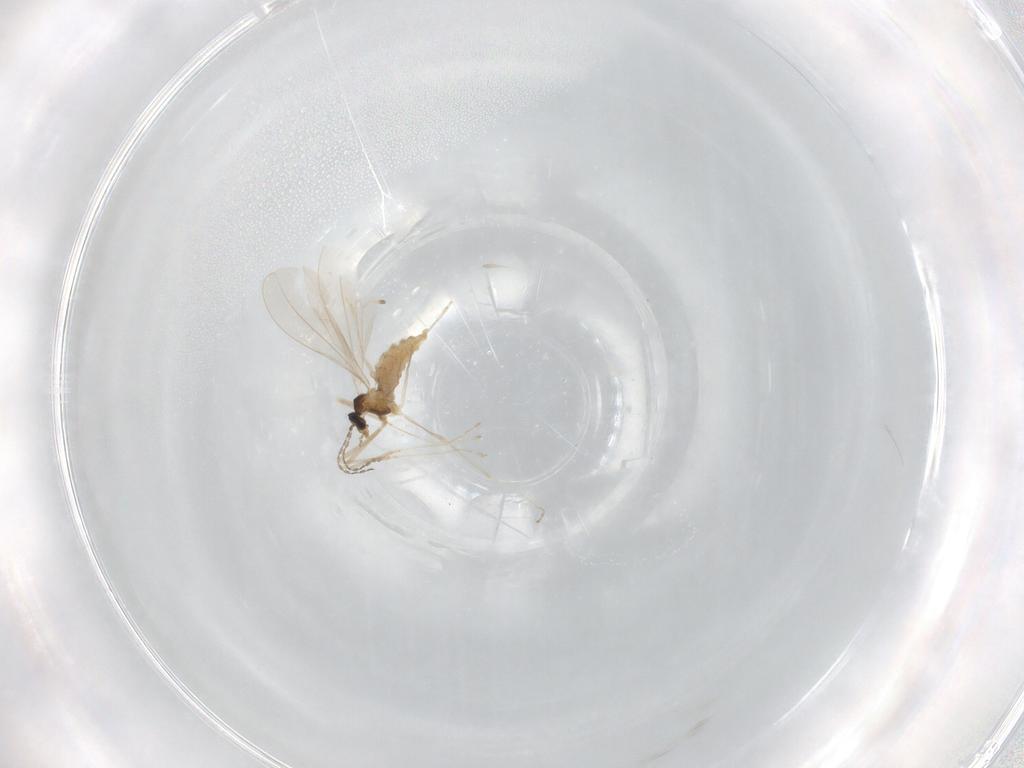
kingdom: Animalia
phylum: Arthropoda
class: Insecta
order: Diptera
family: Cecidomyiidae
